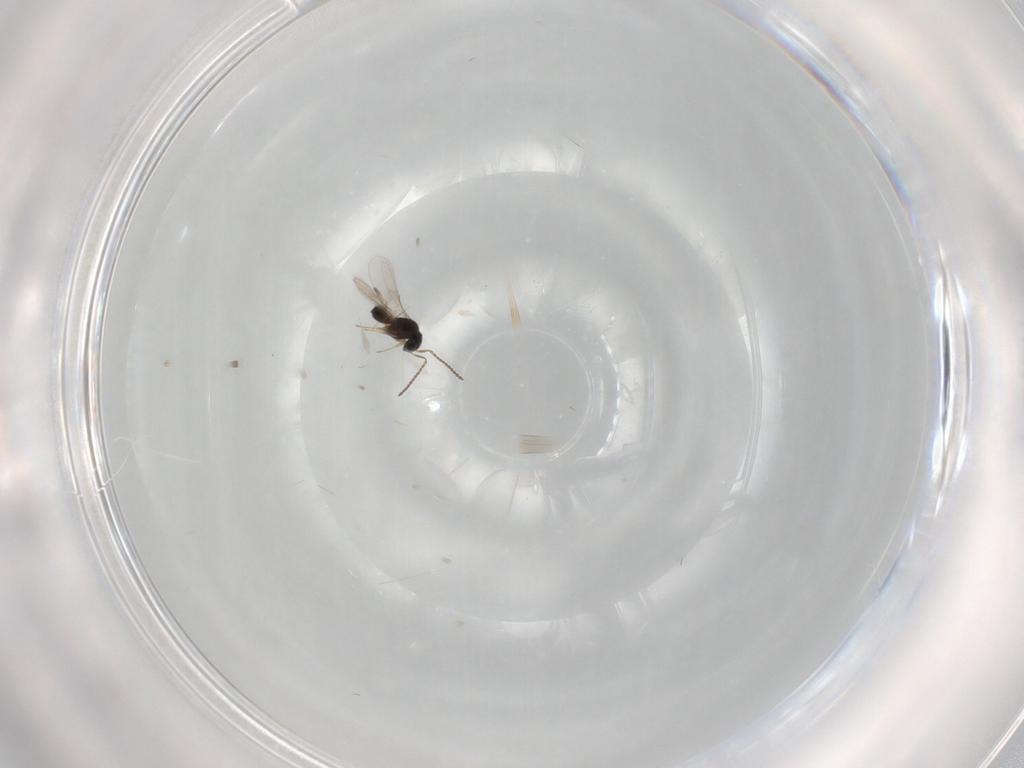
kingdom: Animalia
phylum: Arthropoda
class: Insecta
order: Hymenoptera
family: Scelionidae
